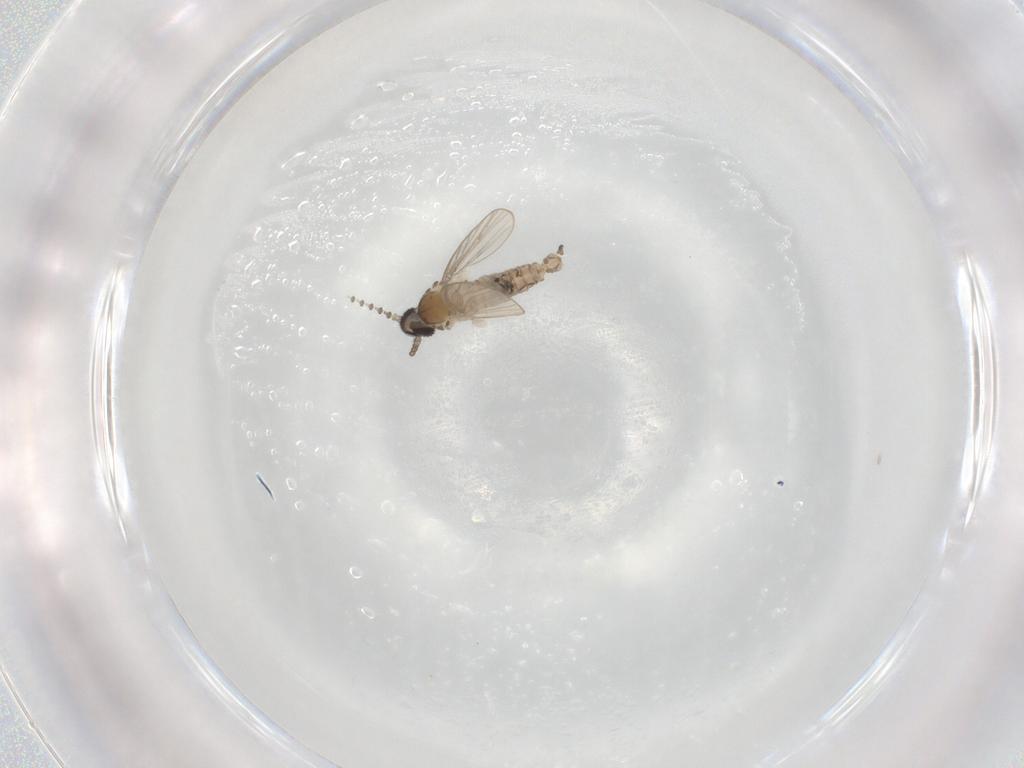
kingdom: Animalia
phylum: Arthropoda
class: Insecta
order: Diptera
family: Psychodidae
